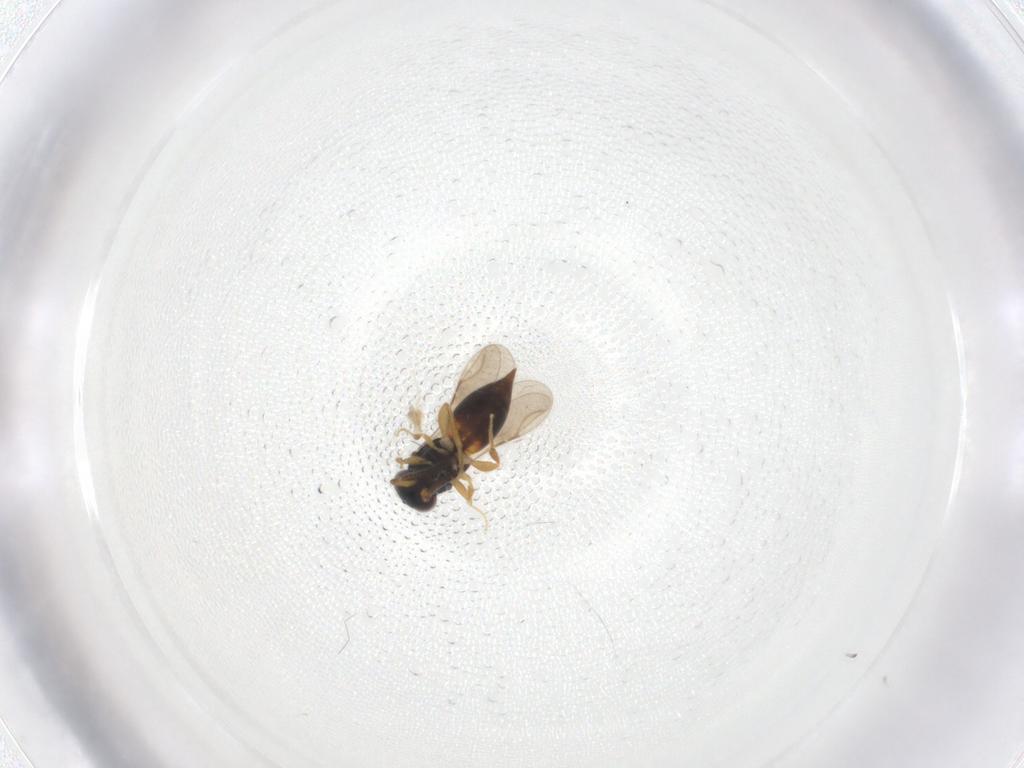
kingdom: Animalia
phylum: Arthropoda
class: Insecta
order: Hymenoptera
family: Ceraphronidae
